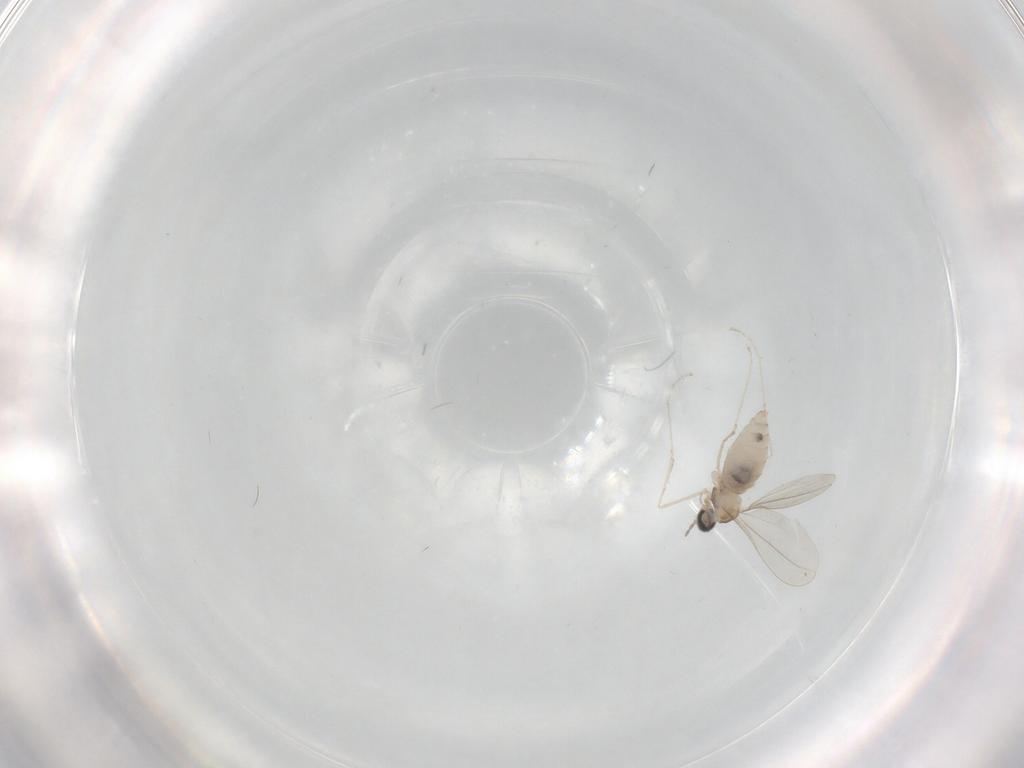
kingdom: Animalia
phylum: Arthropoda
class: Insecta
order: Diptera
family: Cecidomyiidae
